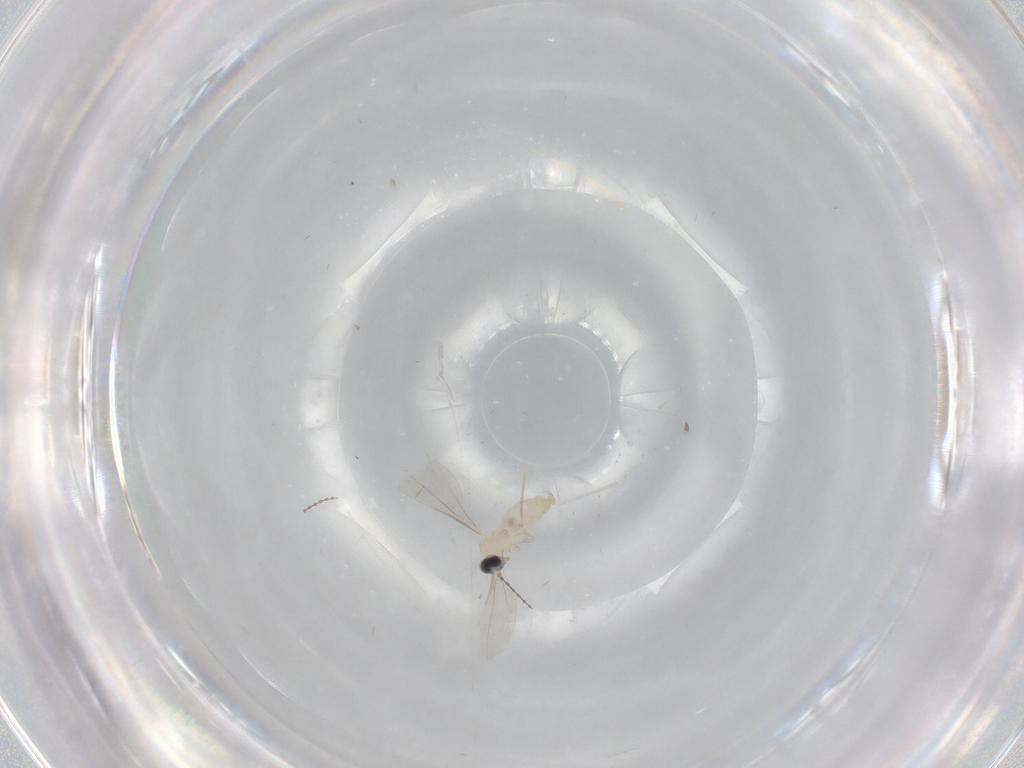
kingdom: Animalia
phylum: Arthropoda
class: Insecta
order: Diptera
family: Cecidomyiidae
